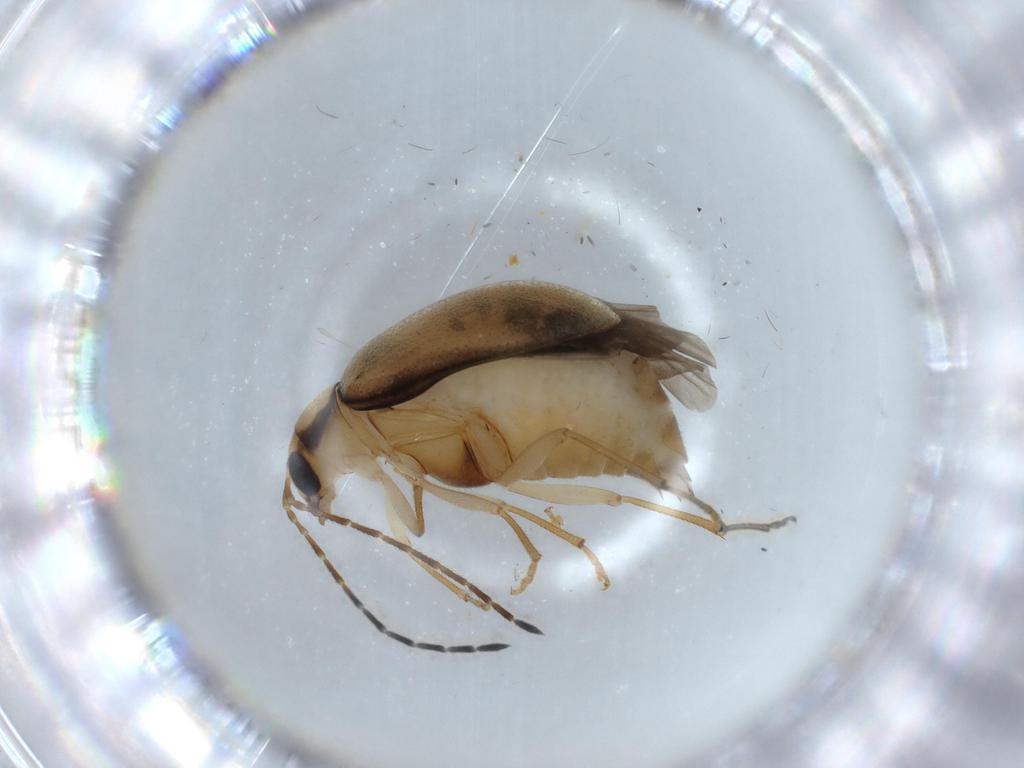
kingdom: Animalia
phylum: Arthropoda
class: Insecta
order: Coleoptera
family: Chrysomelidae
